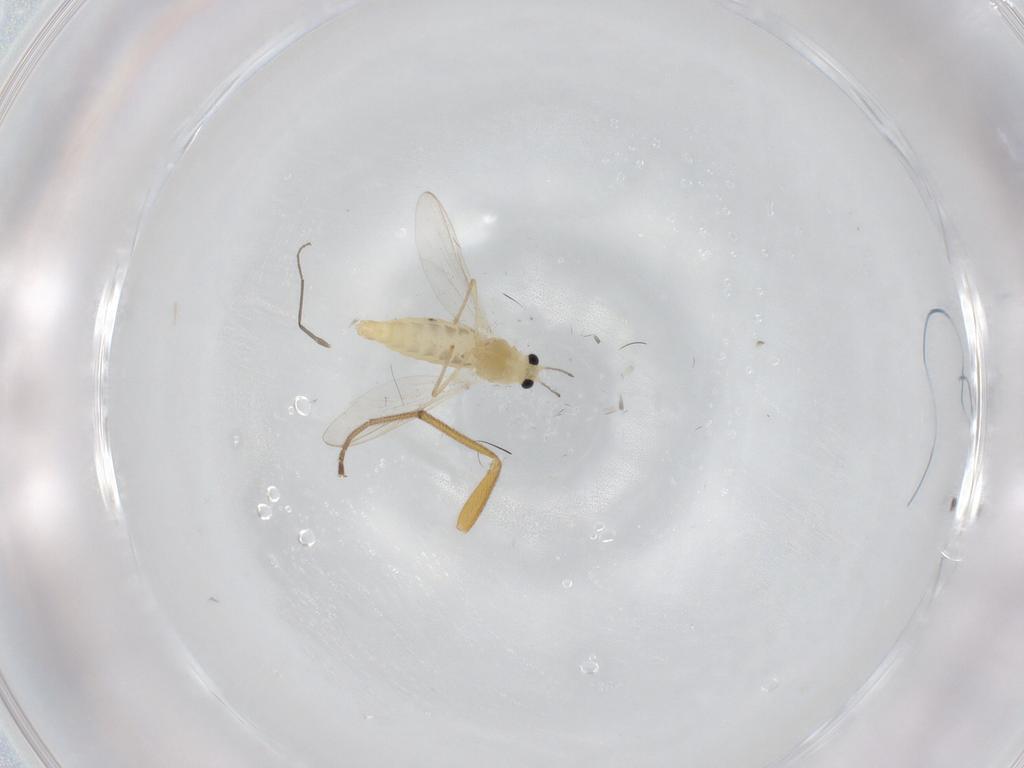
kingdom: Animalia
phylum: Arthropoda
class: Insecta
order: Diptera
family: Chironomidae
